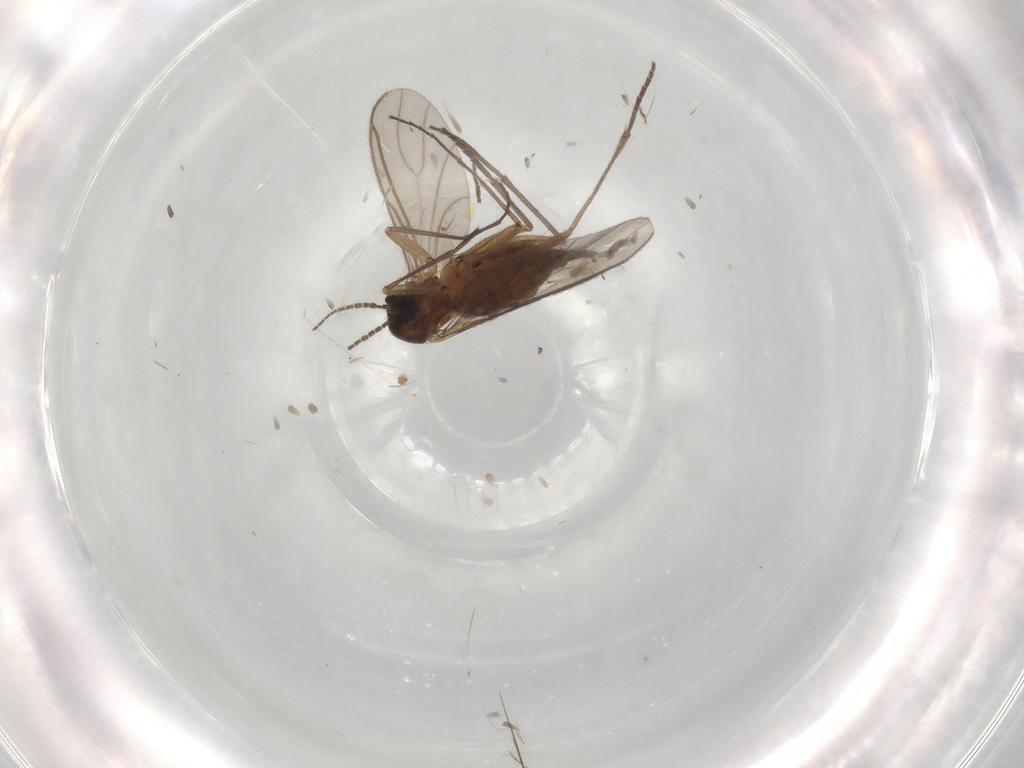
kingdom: Animalia
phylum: Arthropoda
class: Insecta
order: Diptera
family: Sciaridae
